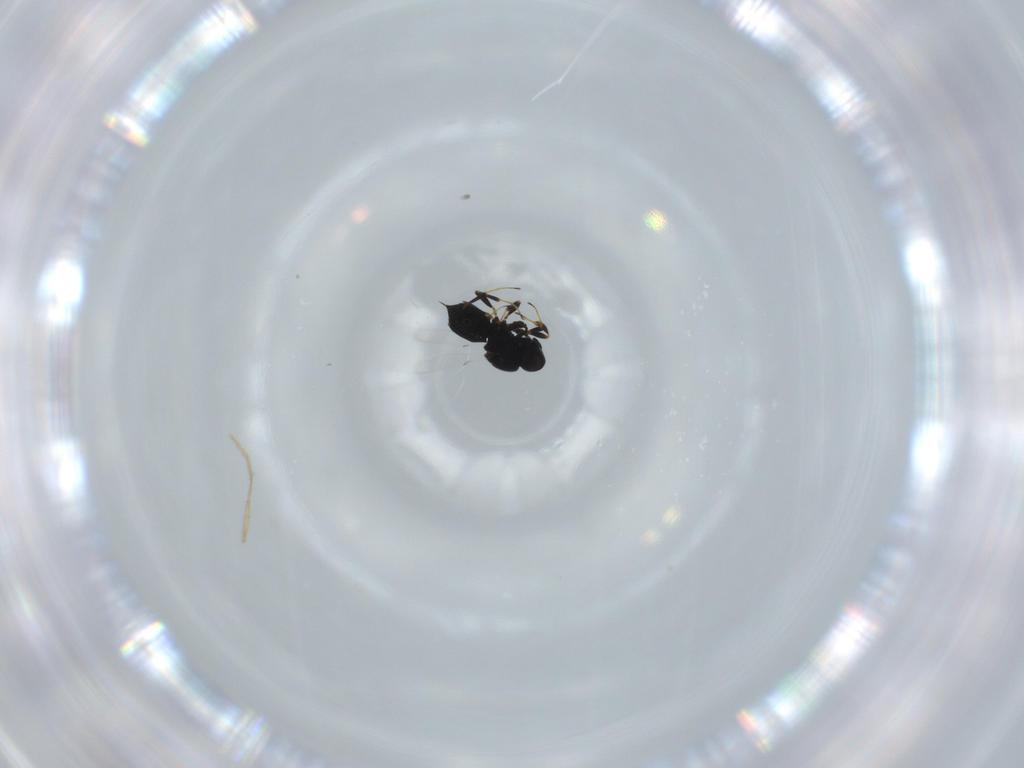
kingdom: Animalia
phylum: Arthropoda
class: Insecta
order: Hymenoptera
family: Scelionidae
